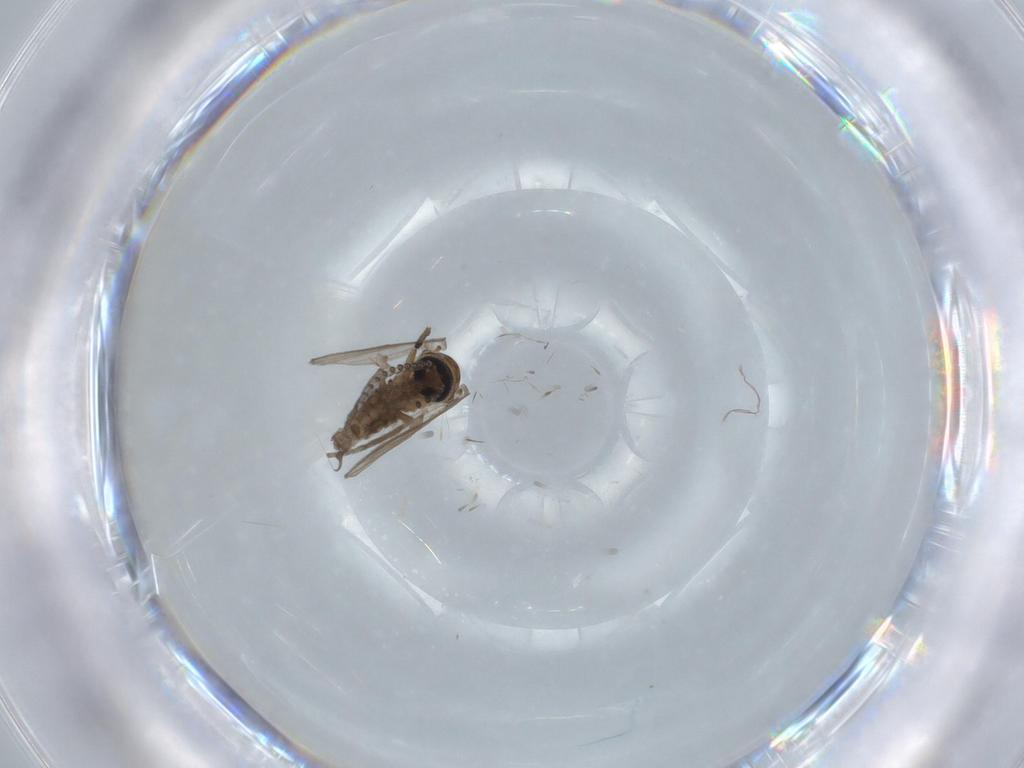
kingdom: Animalia
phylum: Arthropoda
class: Insecta
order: Diptera
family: Psychodidae
